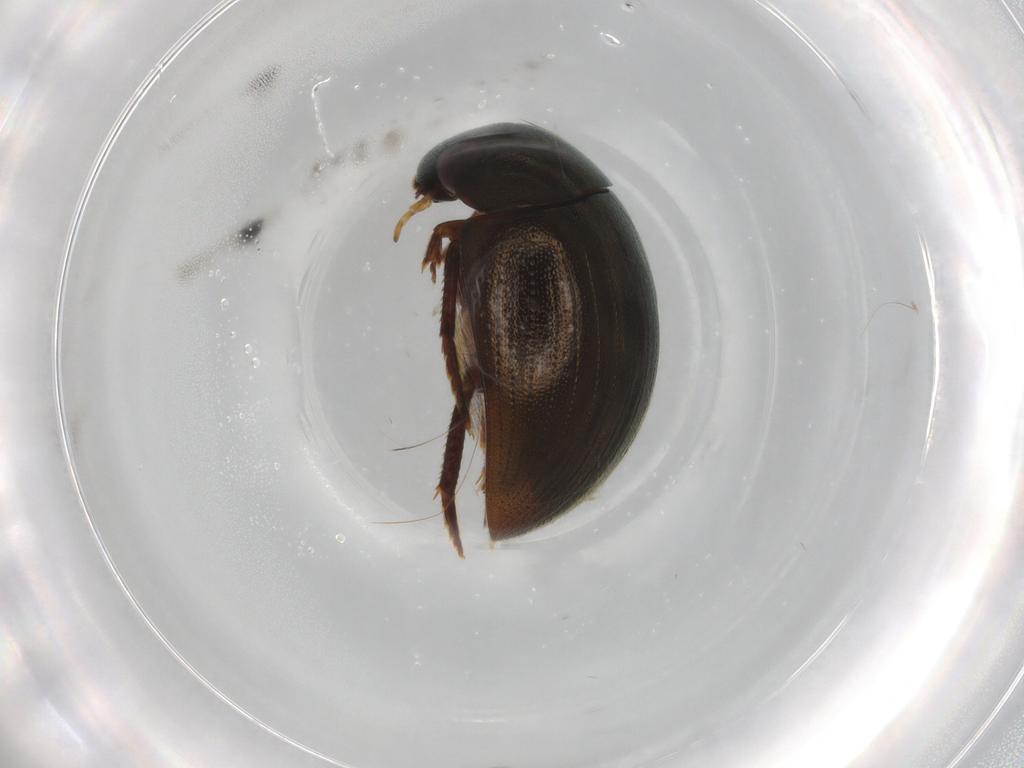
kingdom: Animalia
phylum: Arthropoda
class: Insecta
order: Coleoptera
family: Hydrophilidae
